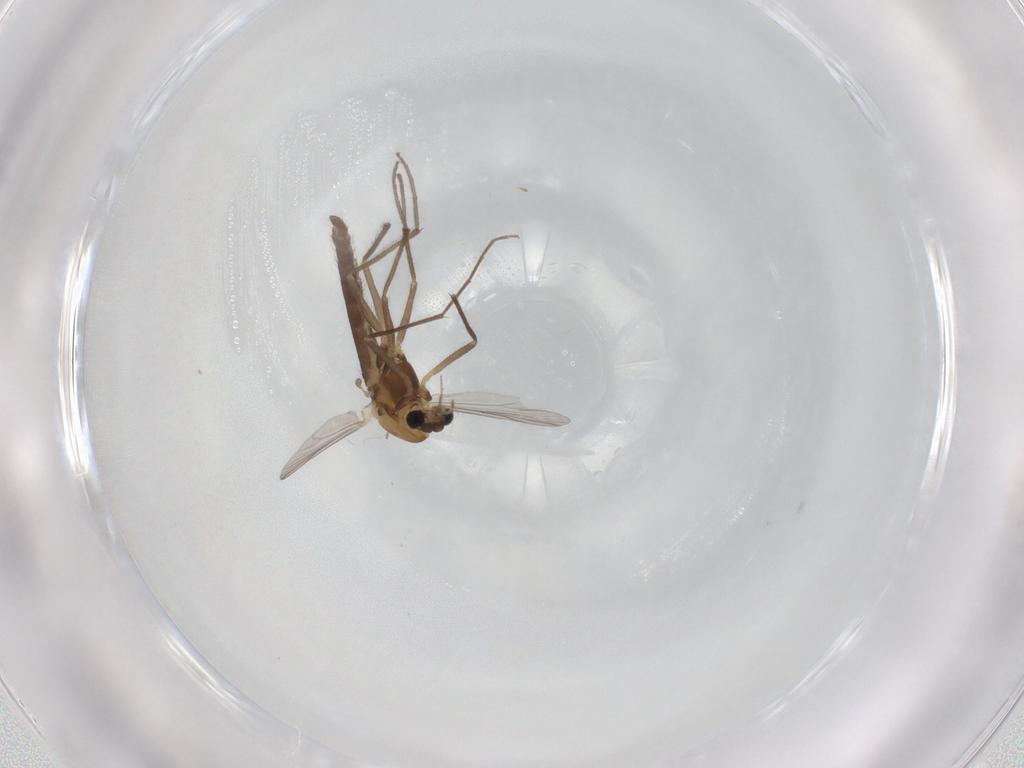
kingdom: Animalia
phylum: Arthropoda
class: Insecta
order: Diptera
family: Chironomidae
